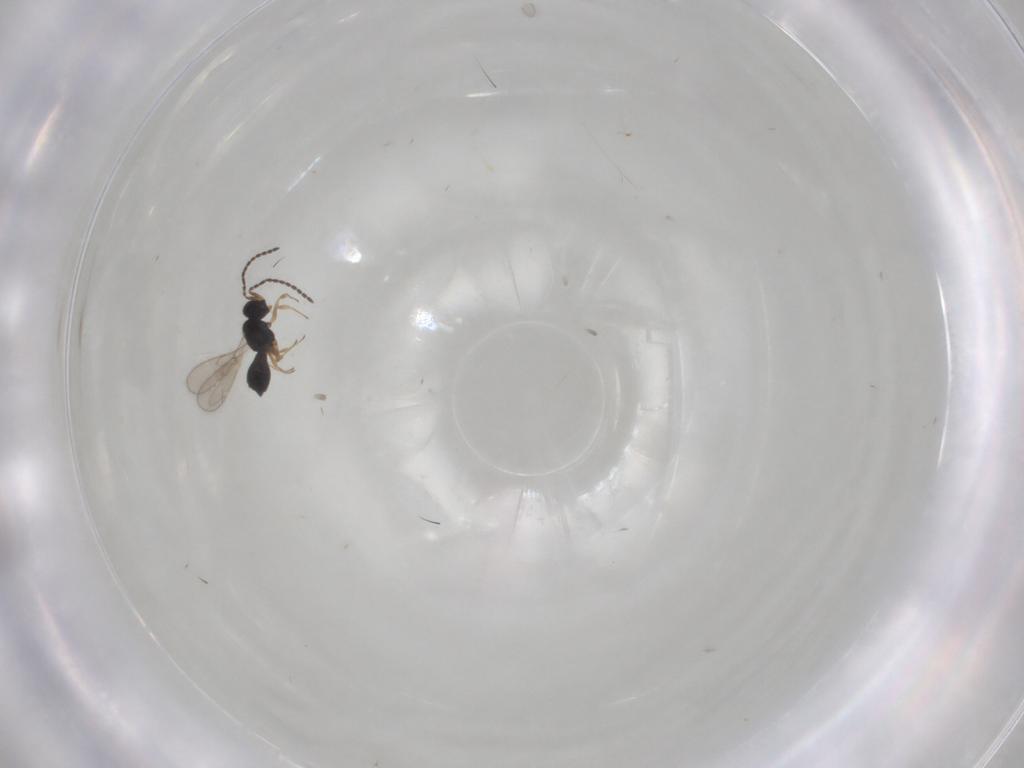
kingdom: Animalia
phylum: Arthropoda
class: Insecta
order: Hymenoptera
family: Scelionidae
